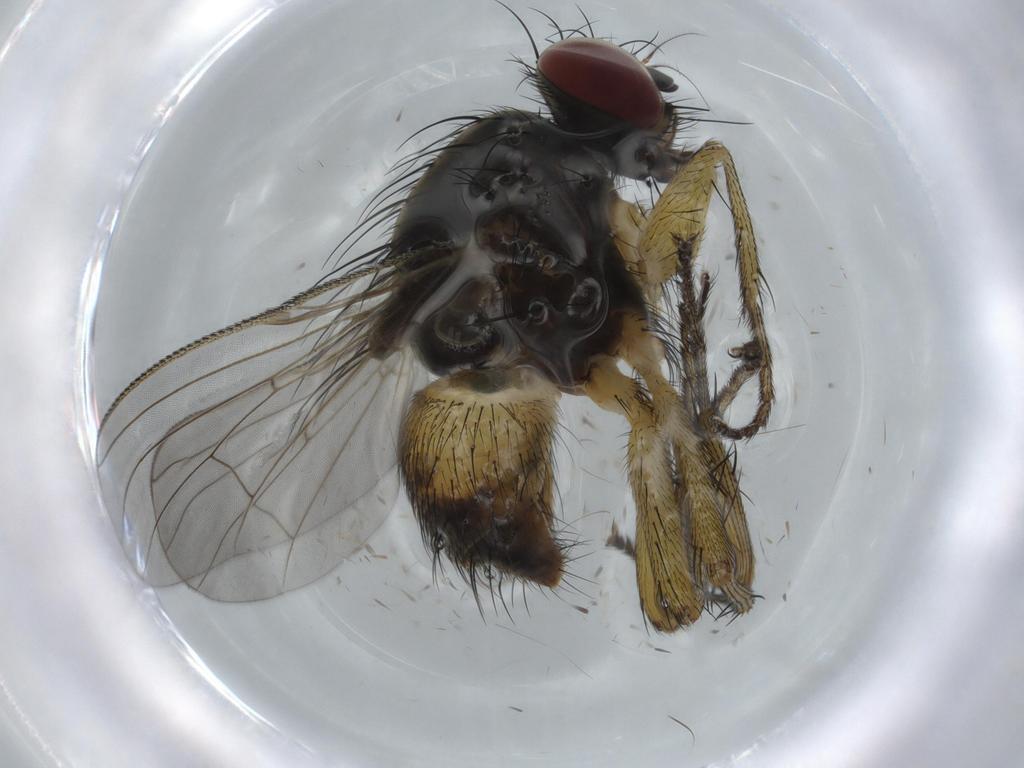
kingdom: Animalia
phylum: Arthropoda
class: Insecta
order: Diptera
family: Muscidae
